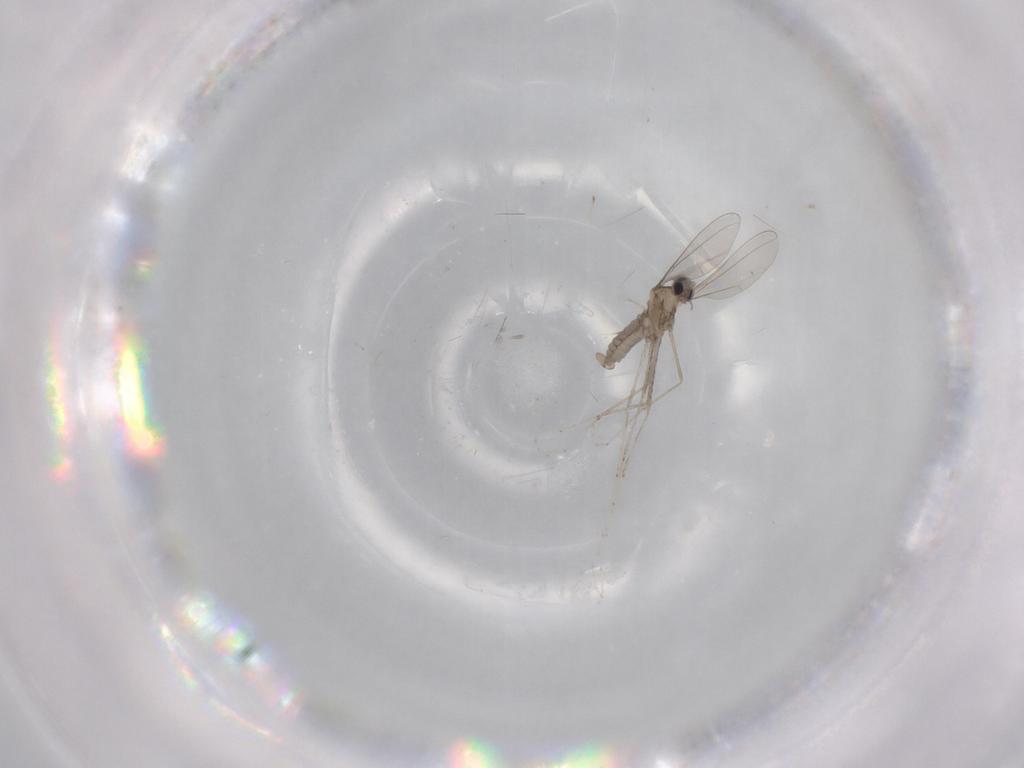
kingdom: Animalia
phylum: Arthropoda
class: Insecta
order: Diptera
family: Cecidomyiidae
